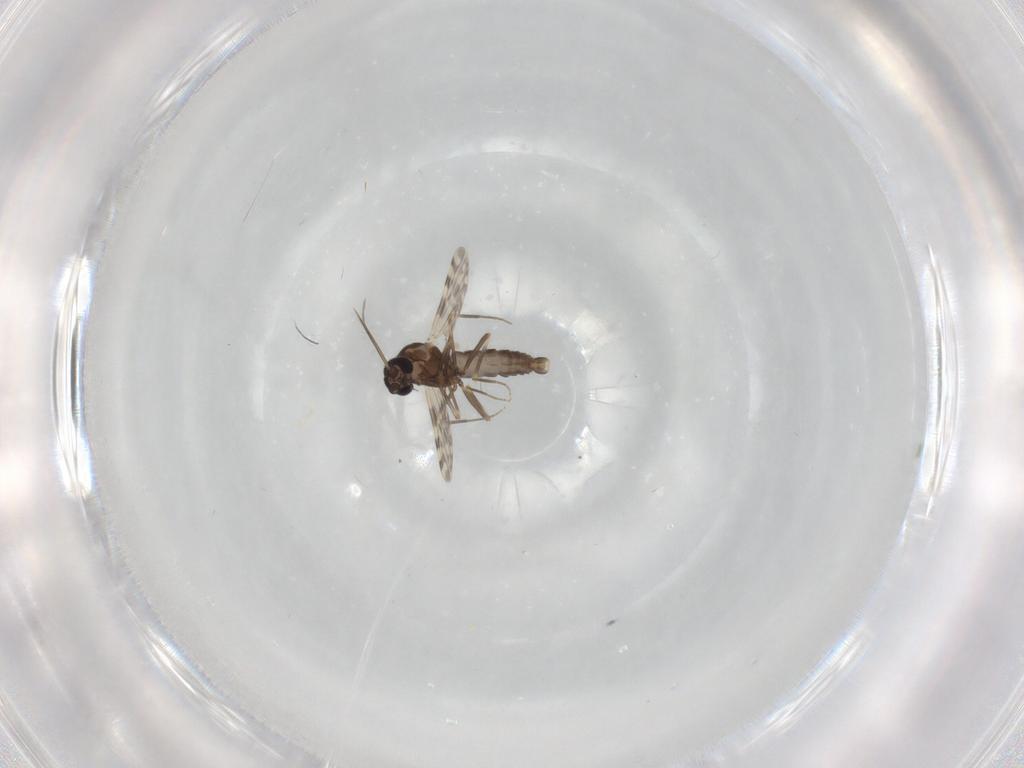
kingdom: Animalia
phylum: Arthropoda
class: Insecta
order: Diptera
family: Ceratopogonidae
